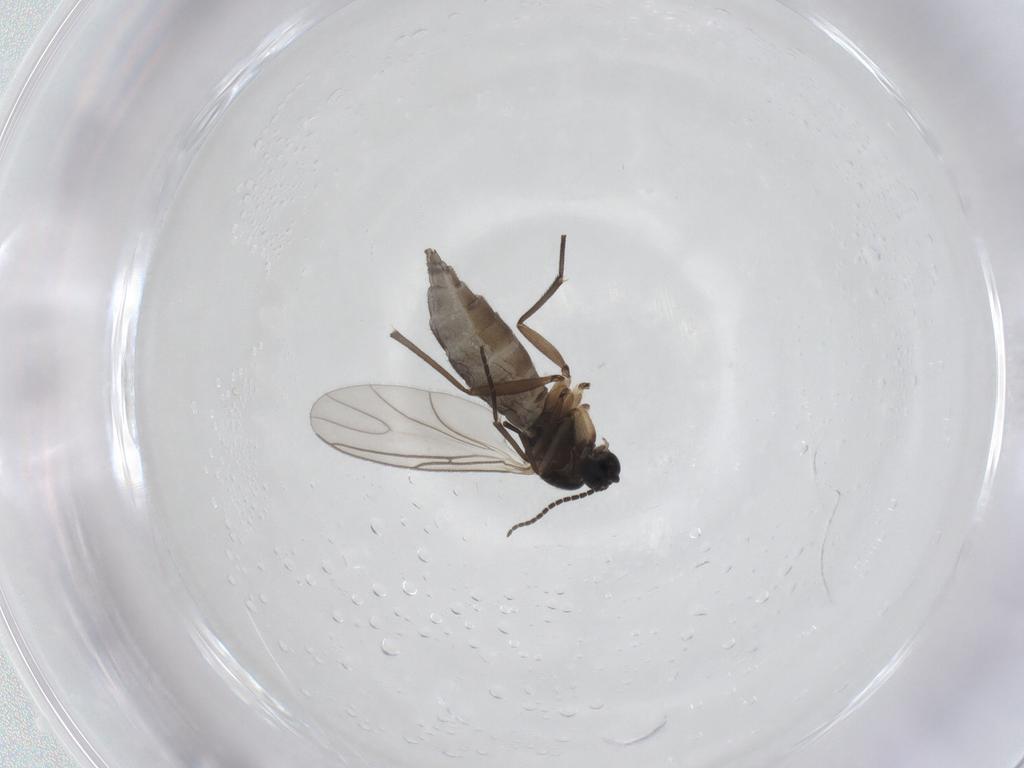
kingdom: Animalia
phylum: Arthropoda
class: Insecta
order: Diptera
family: Sciaridae
